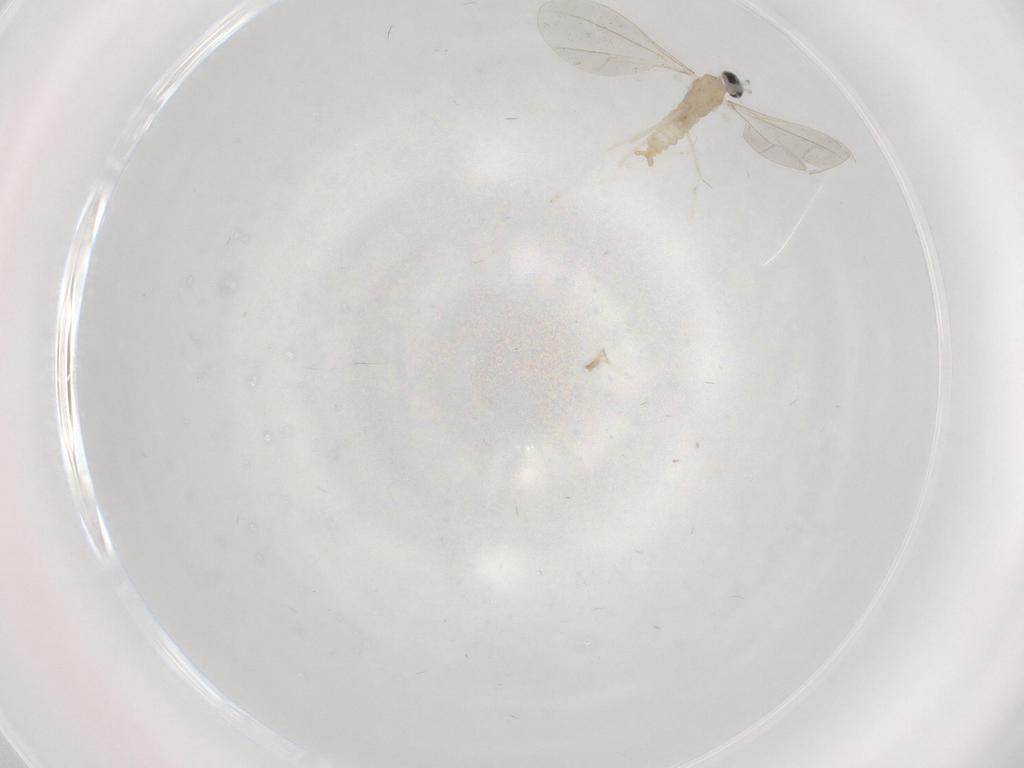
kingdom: Animalia
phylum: Arthropoda
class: Insecta
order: Diptera
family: Cecidomyiidae
